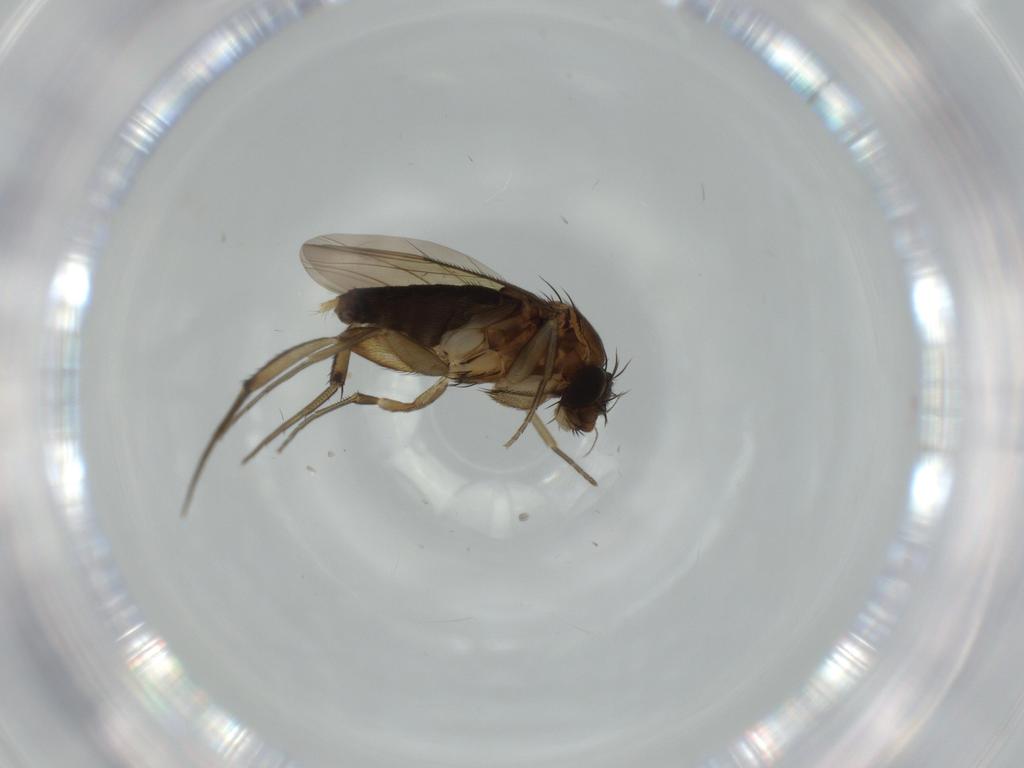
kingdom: Animalia
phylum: Arthropoda
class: Insecta
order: Diptera
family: Phoridae
